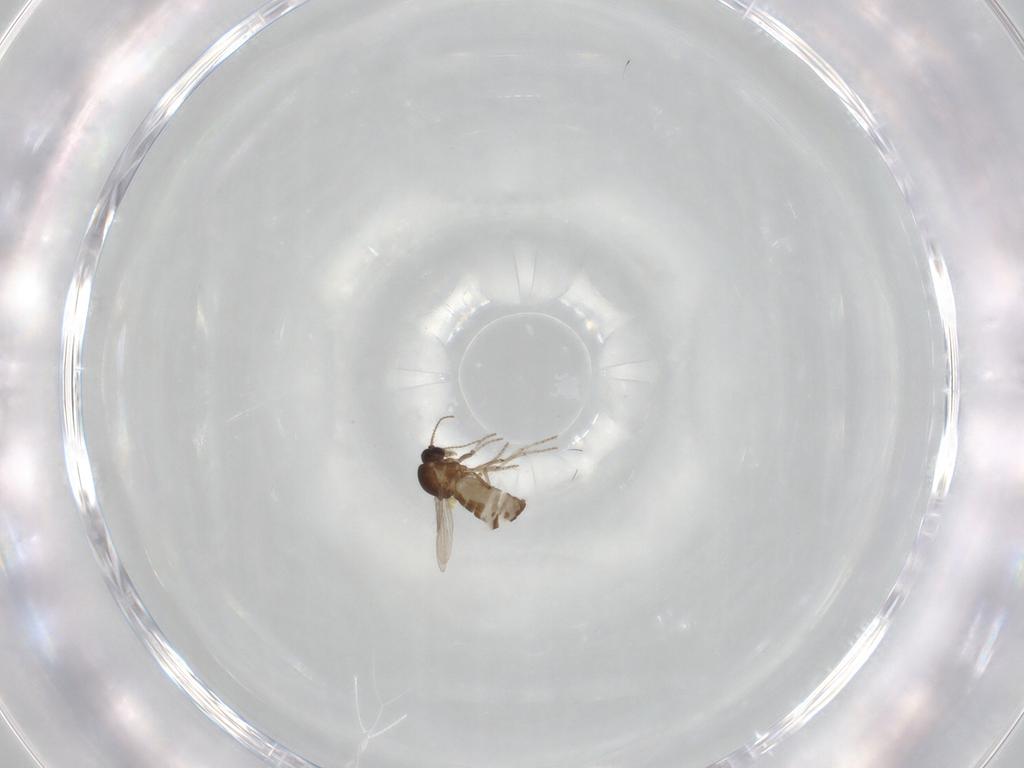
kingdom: Animalia
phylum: Arthropoda
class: Insecta
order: Diptera
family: Ceratopogonidae
